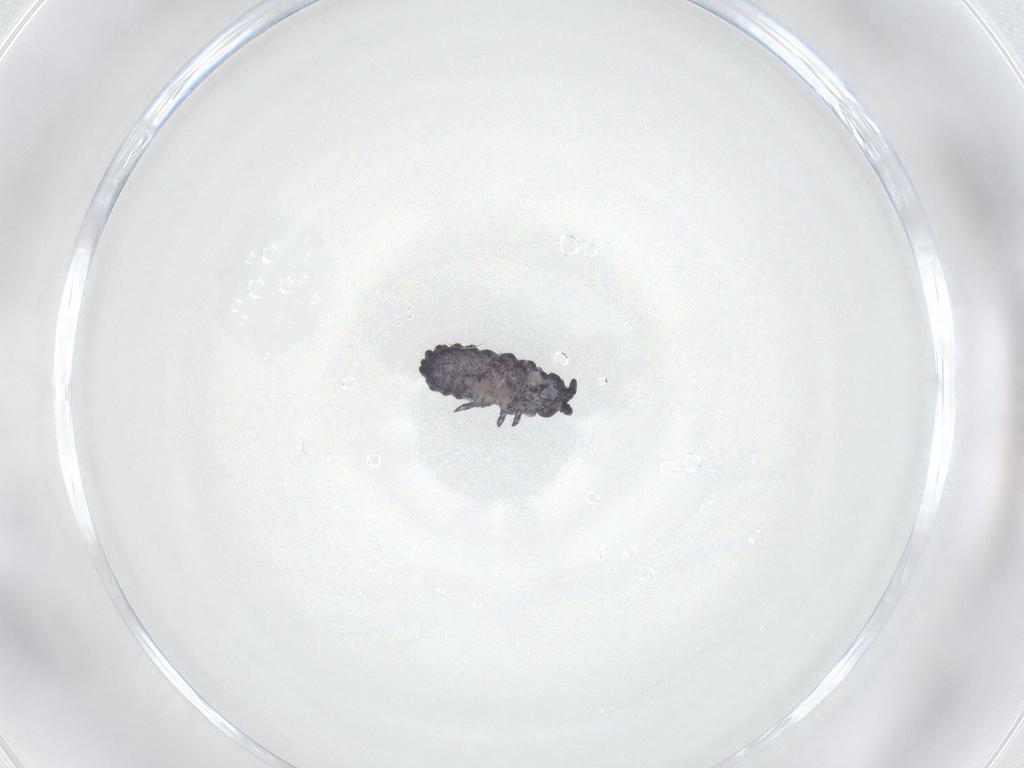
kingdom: Animalia
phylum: Arthropoda
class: Collembola
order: Poduromorpha
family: Neanuridae
